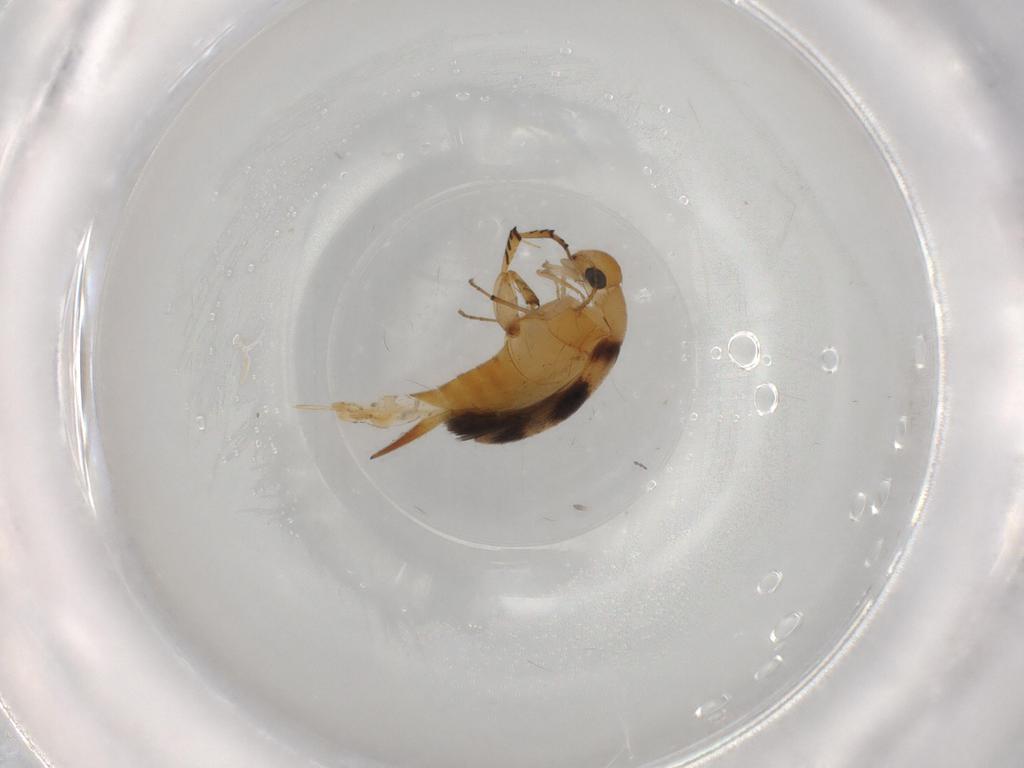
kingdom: Animalia
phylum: Arthropoda
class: Insecta
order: Coleoptera
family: Mordellidae
